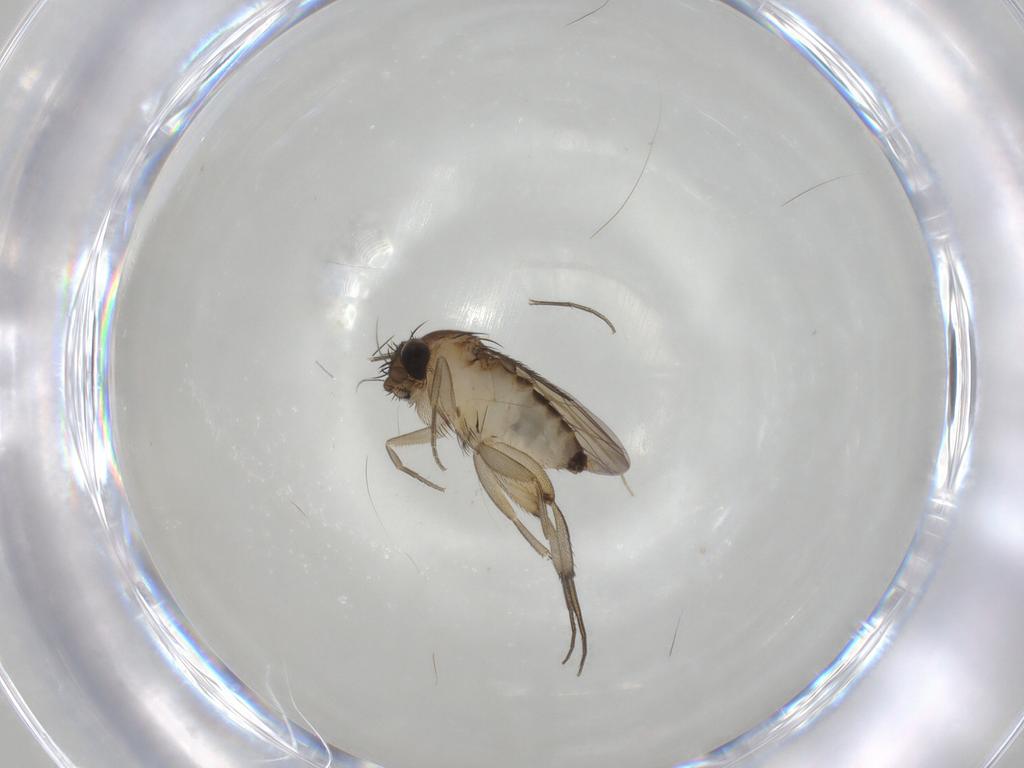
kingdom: Animalia
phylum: Arthropoda
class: Insecta
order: Diptera
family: Phoridae
